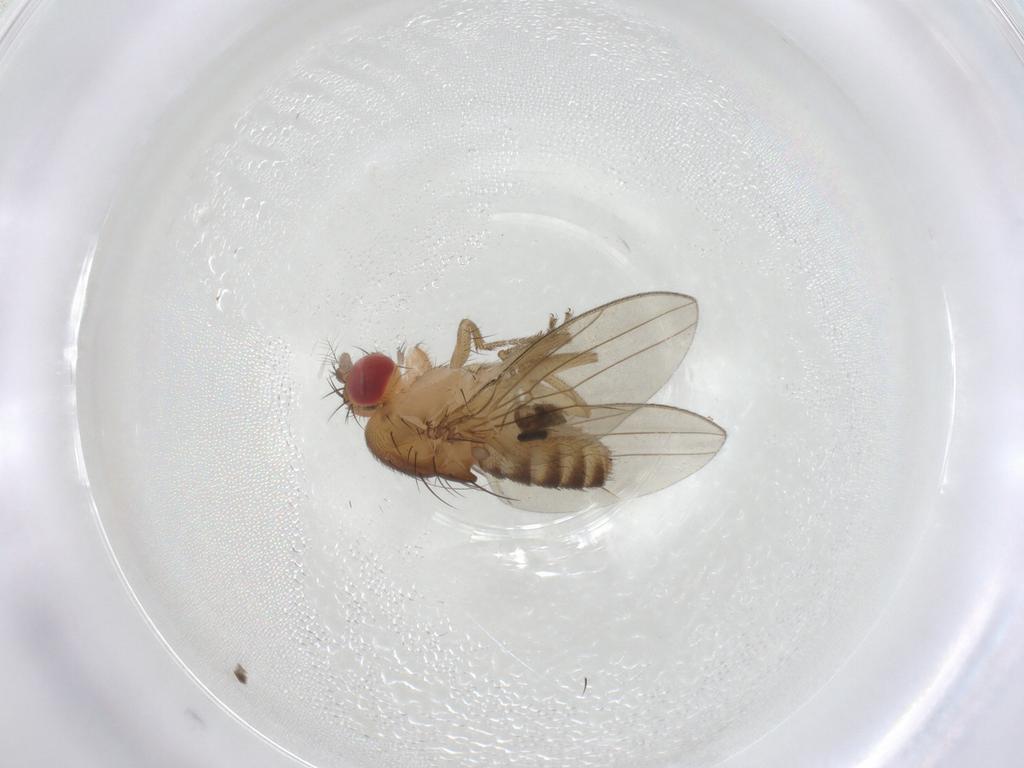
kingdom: Animalia
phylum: Arthropoda
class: Insecta
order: Diptera
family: Drosophilidae
